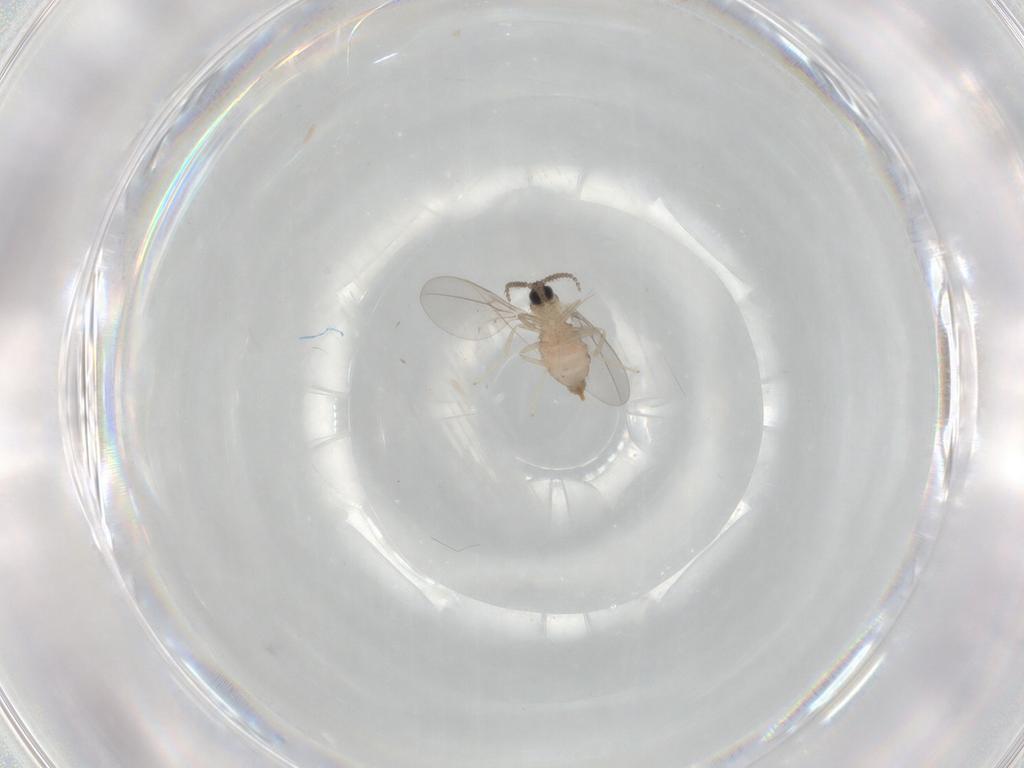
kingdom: Animalia
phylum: Arthropoda
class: Insecta
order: Diptera
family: Cecidomyiidae
